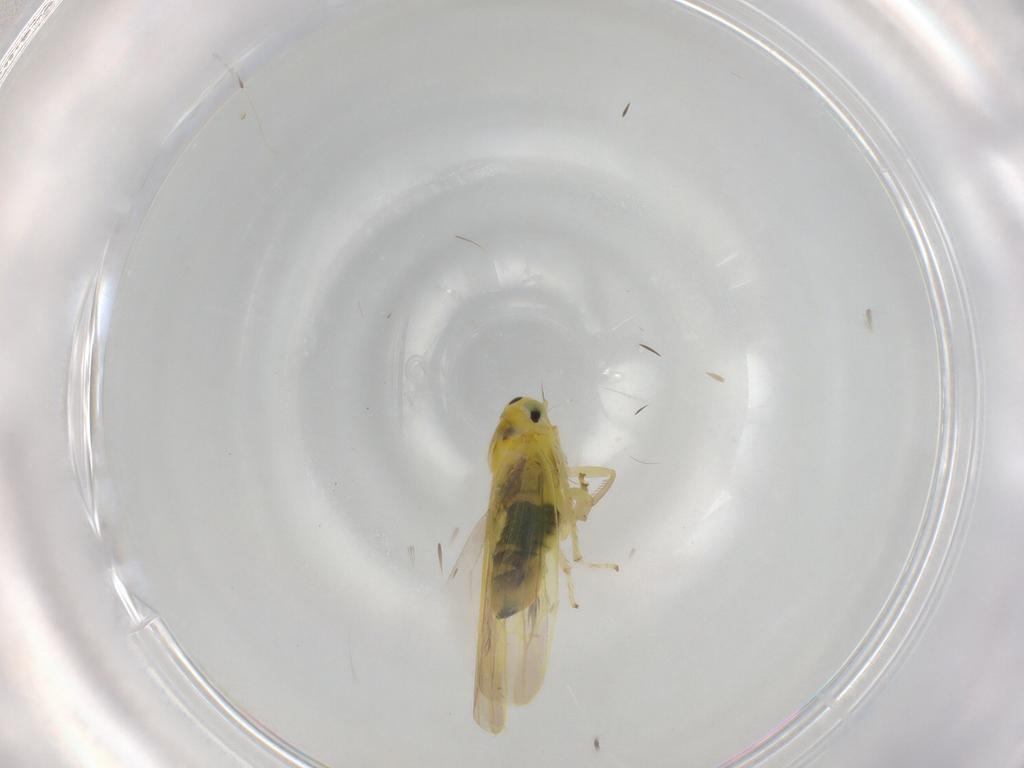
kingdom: Animalia
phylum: Arthropoda
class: Insecta
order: Hemiptera
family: Cicadellidae
